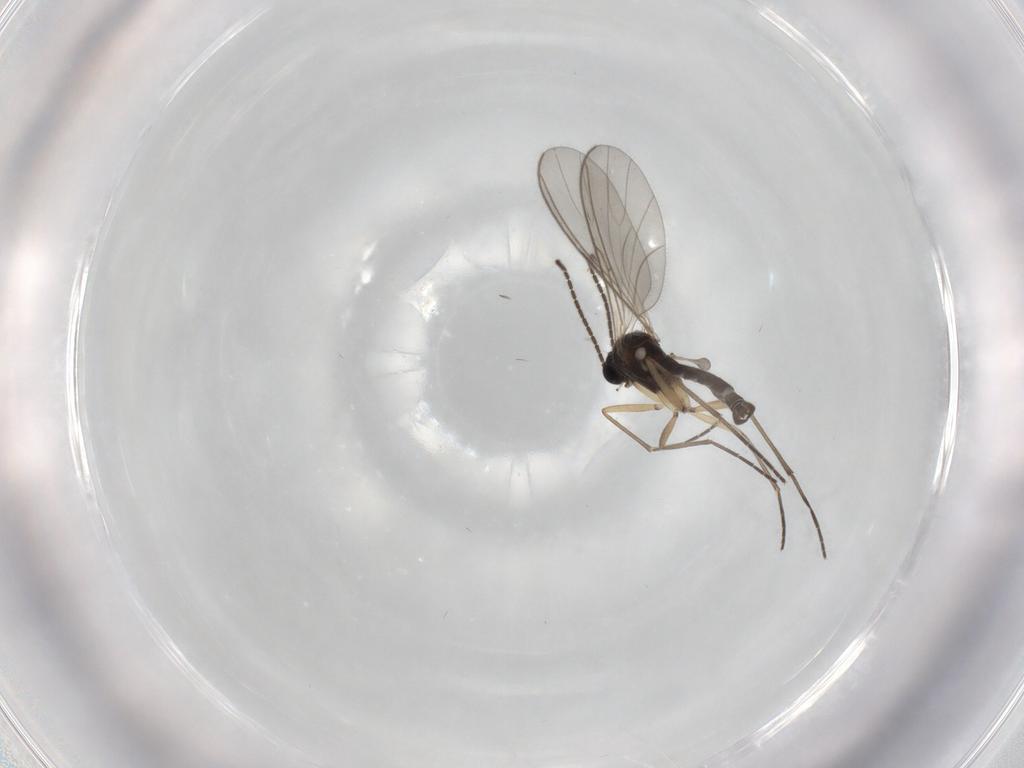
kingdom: Animalia
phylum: Arthropoda
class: Insecta
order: Diptera
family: Sciaridae
